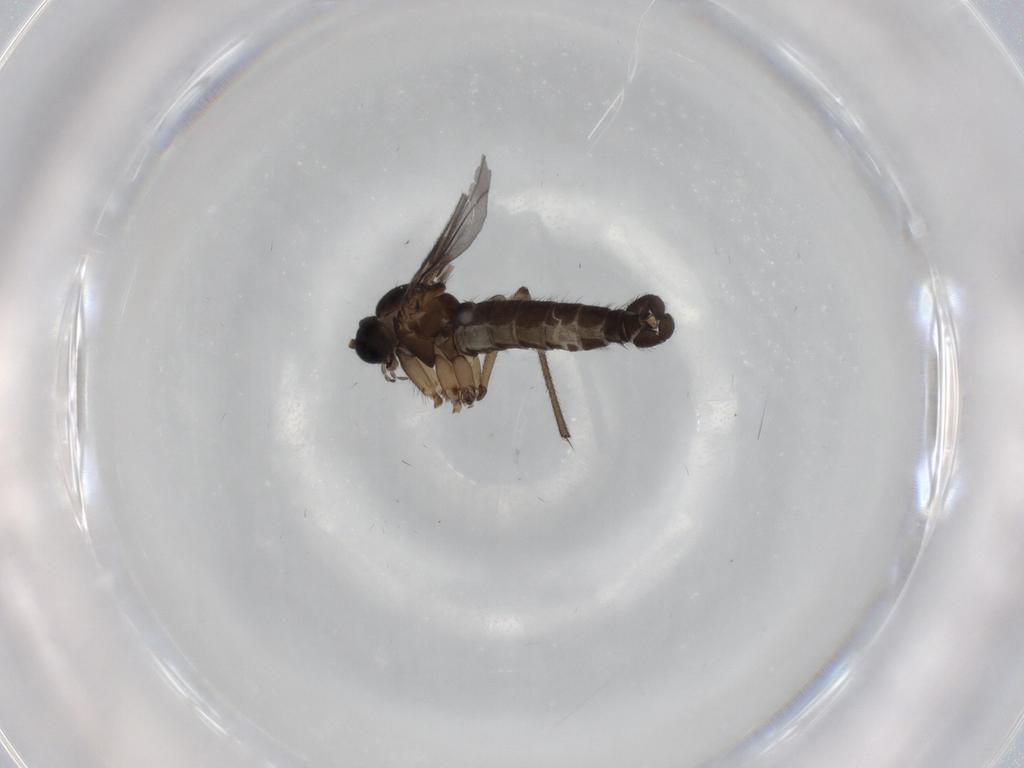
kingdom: Animalia
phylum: Arthropoda
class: Insecta
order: Diptera
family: Sciaridae
